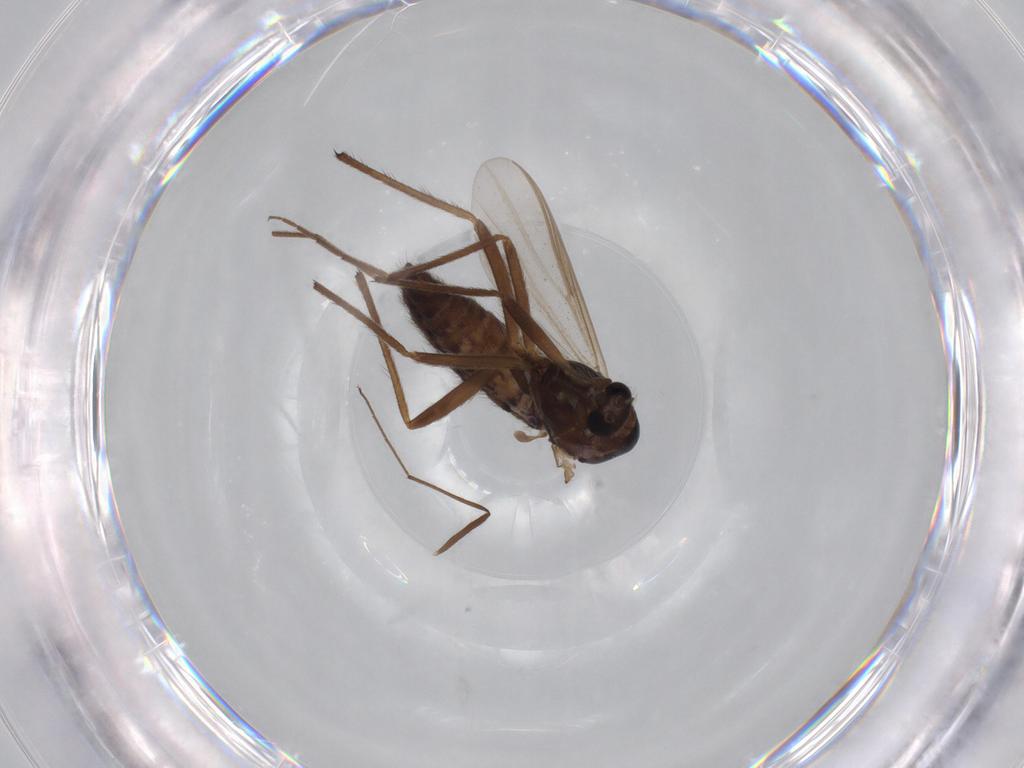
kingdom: Animalia
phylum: Arthropoda
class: Insecta
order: Diptera
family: Chironomidae
